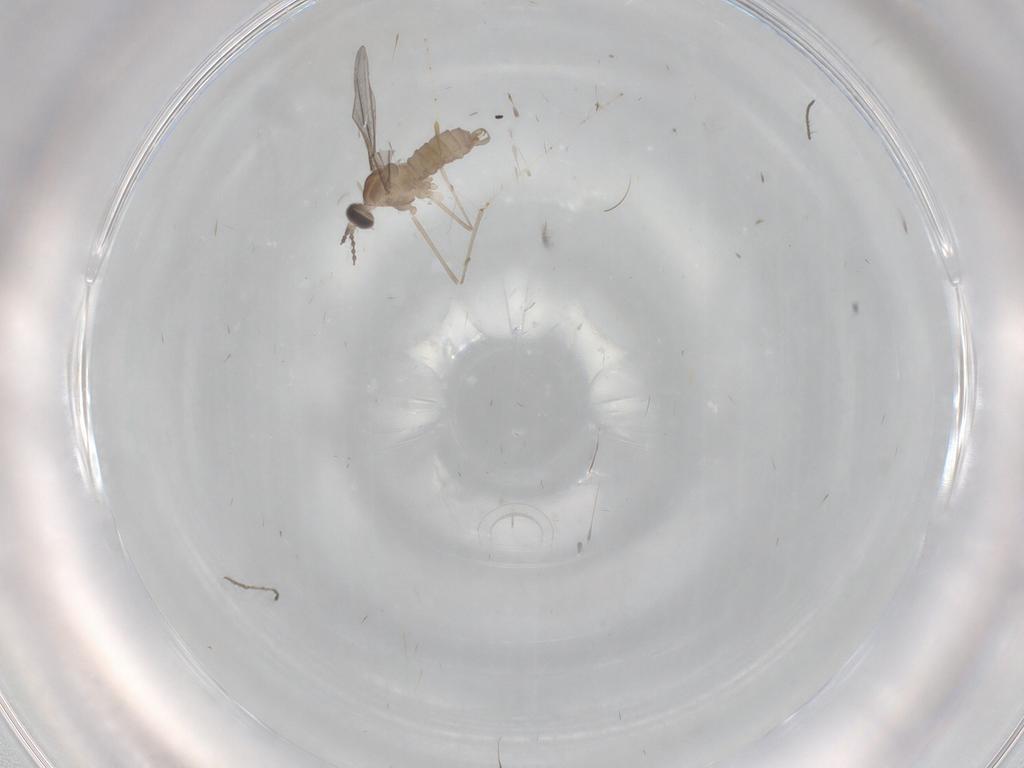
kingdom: Animalia
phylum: Arthropoda
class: Insecta
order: Diptera
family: Cecidomyiidae
